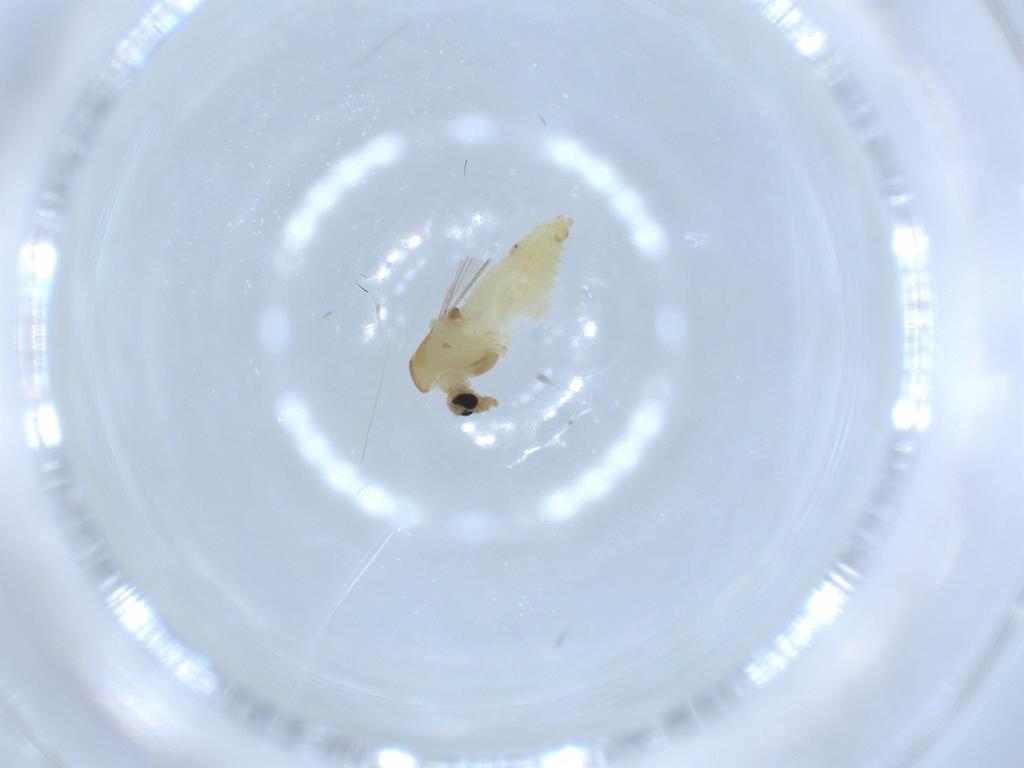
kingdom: Animalia
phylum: Arthropoda
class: Insecta
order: Diptera
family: Chironomidae
